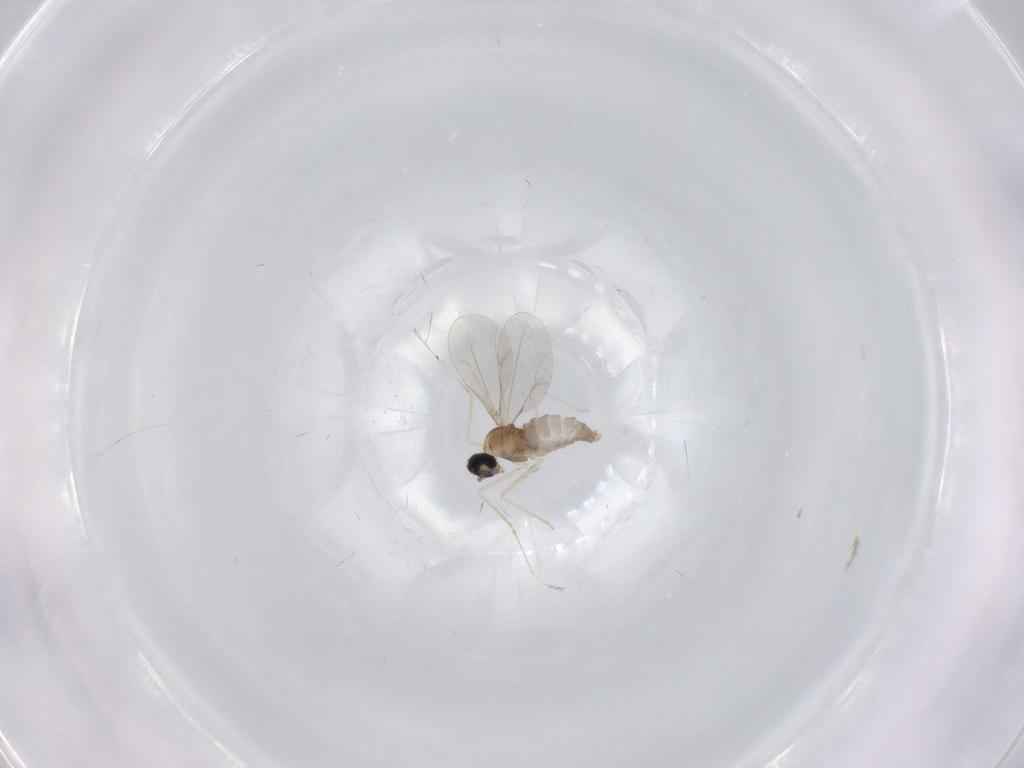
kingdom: Animalia
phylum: Arthropoda
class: Insecta
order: Diptera
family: Cecidomyiidae
